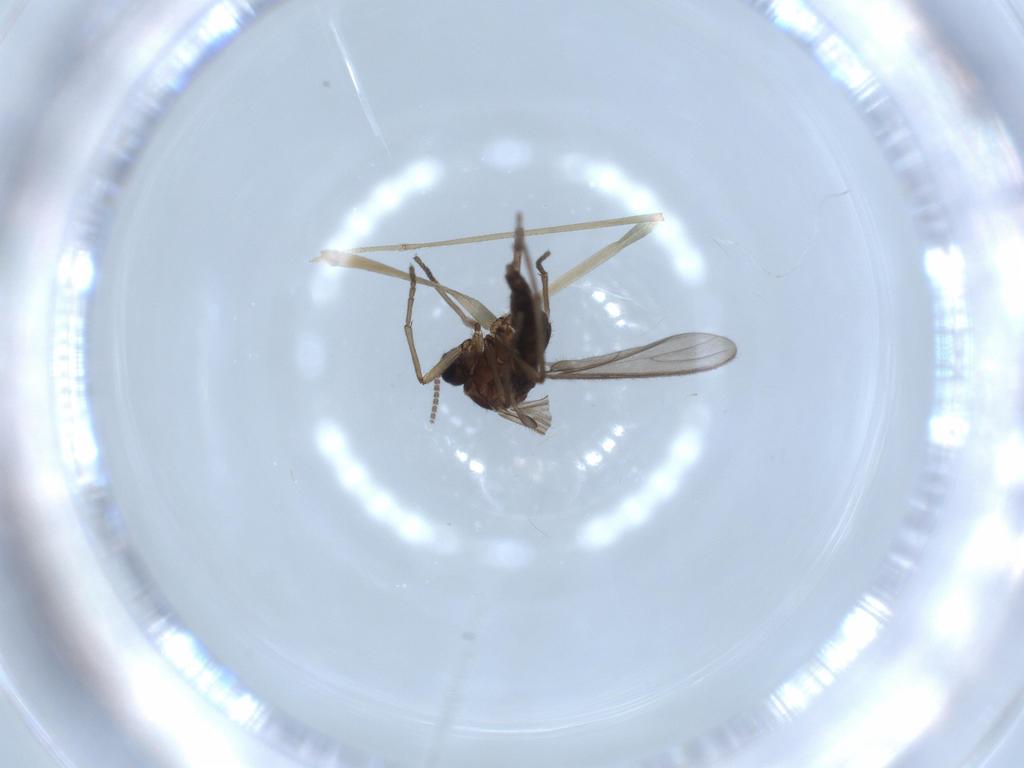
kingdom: Animalia
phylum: Arthropoda
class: Insecta
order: Diptera
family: Sciaridae
